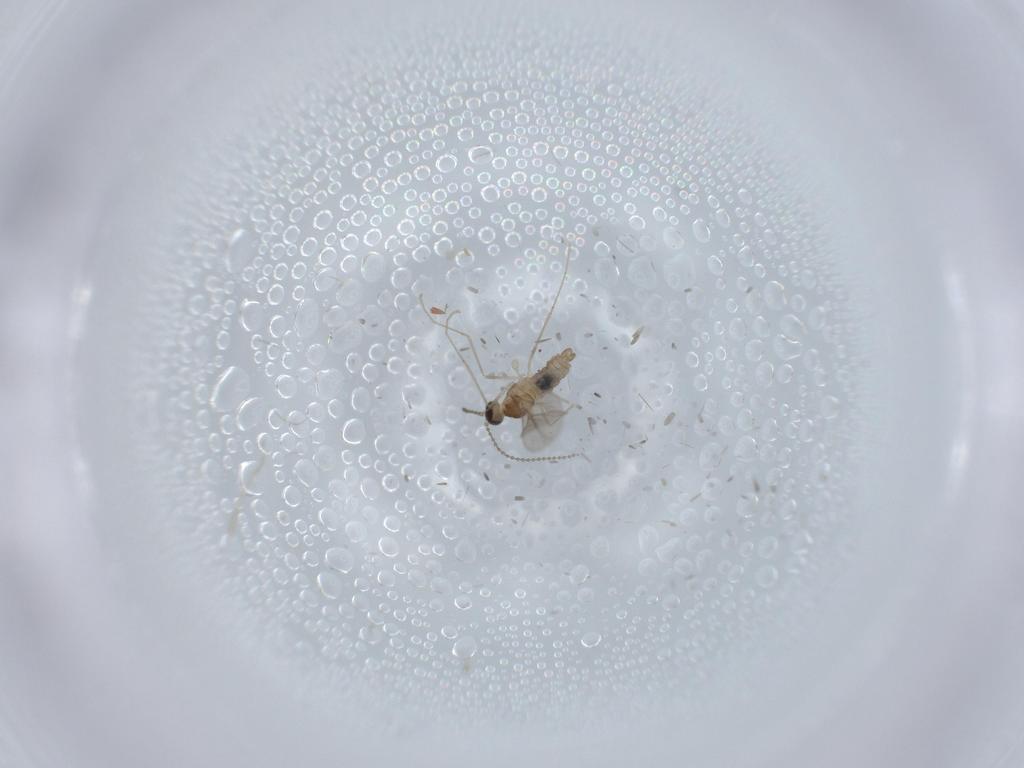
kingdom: Animalia
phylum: Arthropoda
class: Insecta
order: Diptera
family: Cecidomyiidae
